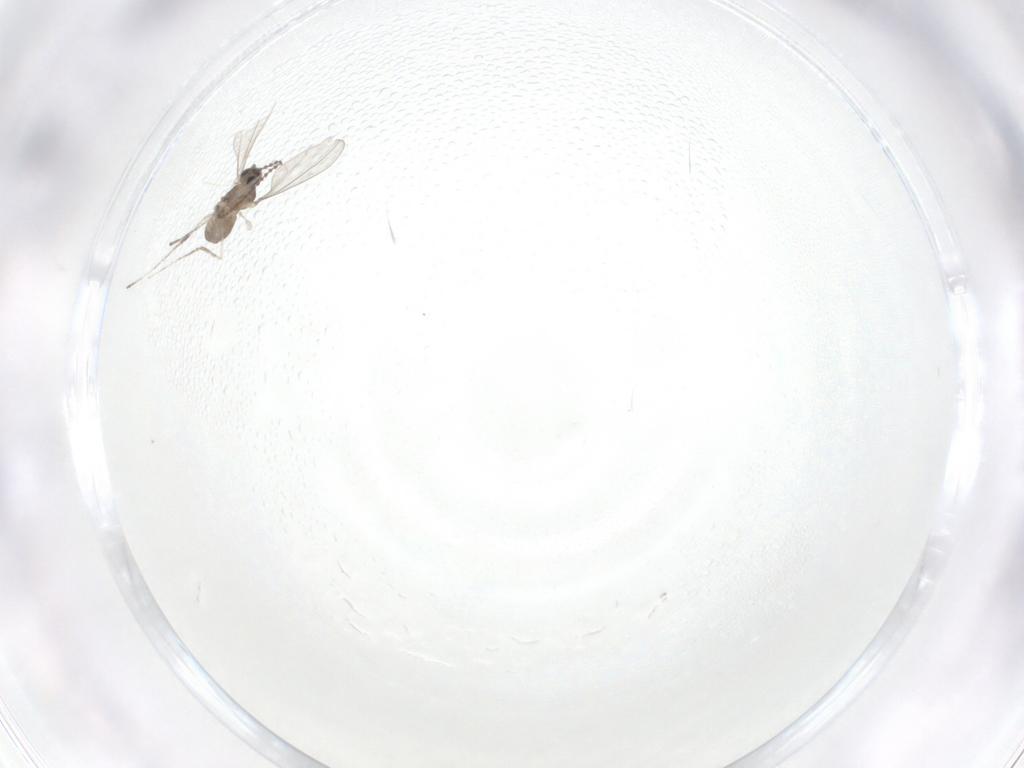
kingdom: Animalia
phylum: Arthropoda
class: Insecta
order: Diptera
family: Cecidomyiidae
